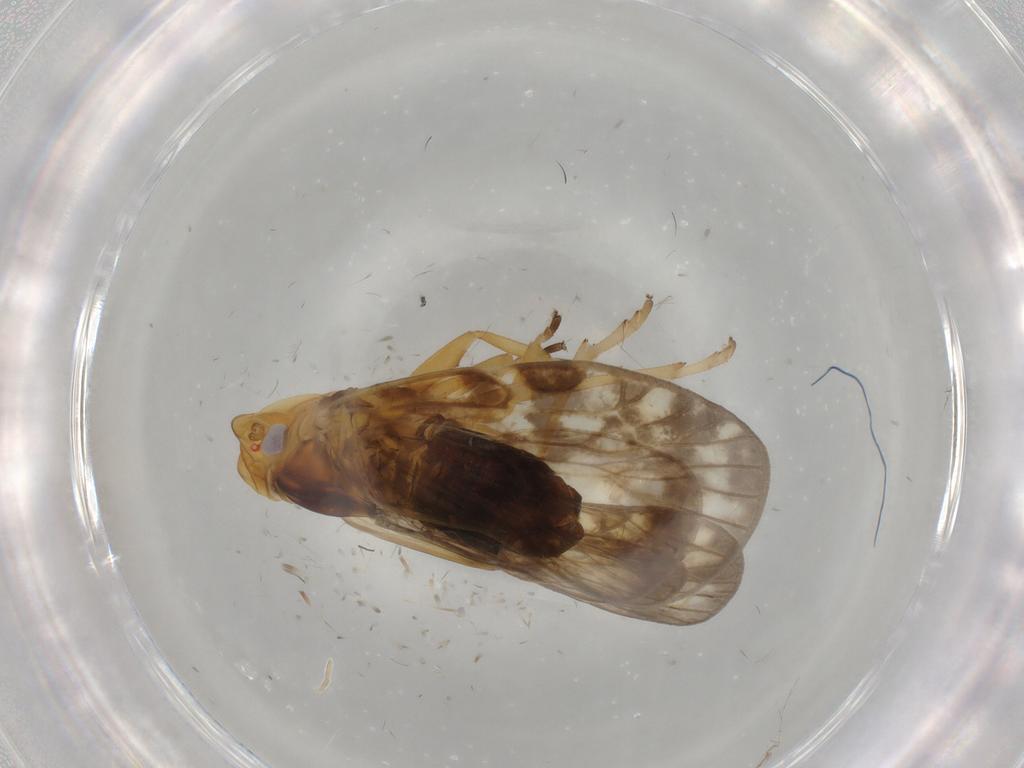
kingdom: Animalia
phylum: Arthropoda
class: Insecta
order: Hemiptera
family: Cixiidae
